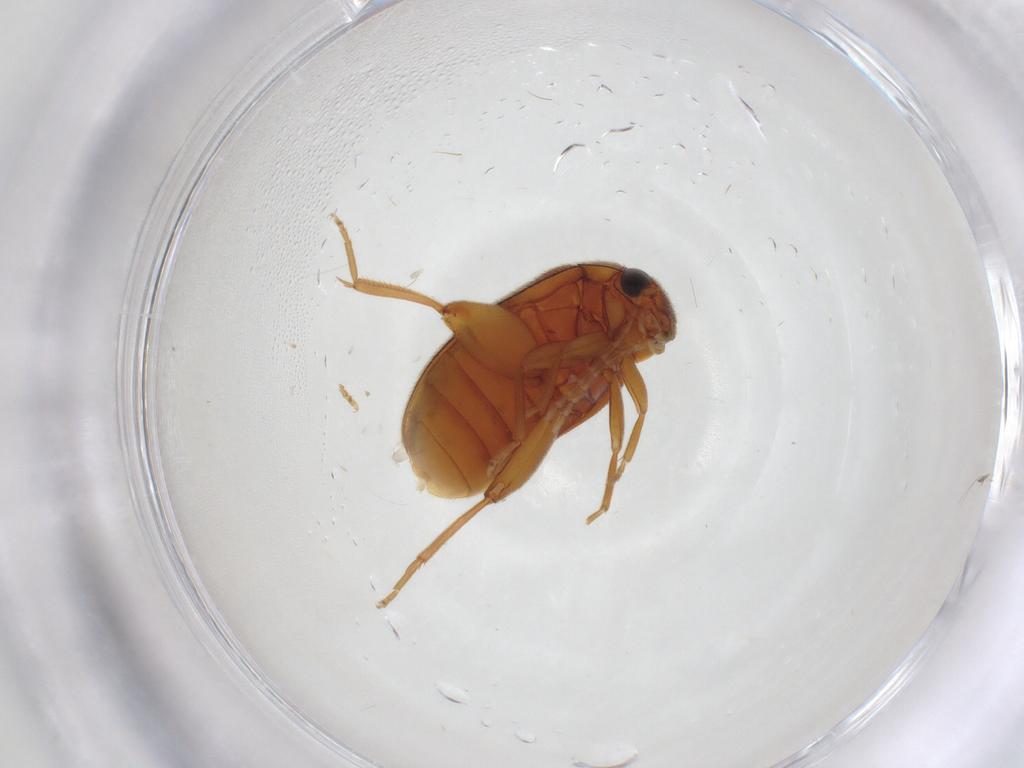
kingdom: Animalia
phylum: Arthropoda
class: Insecta
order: Coleoptera
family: Scirtidae
